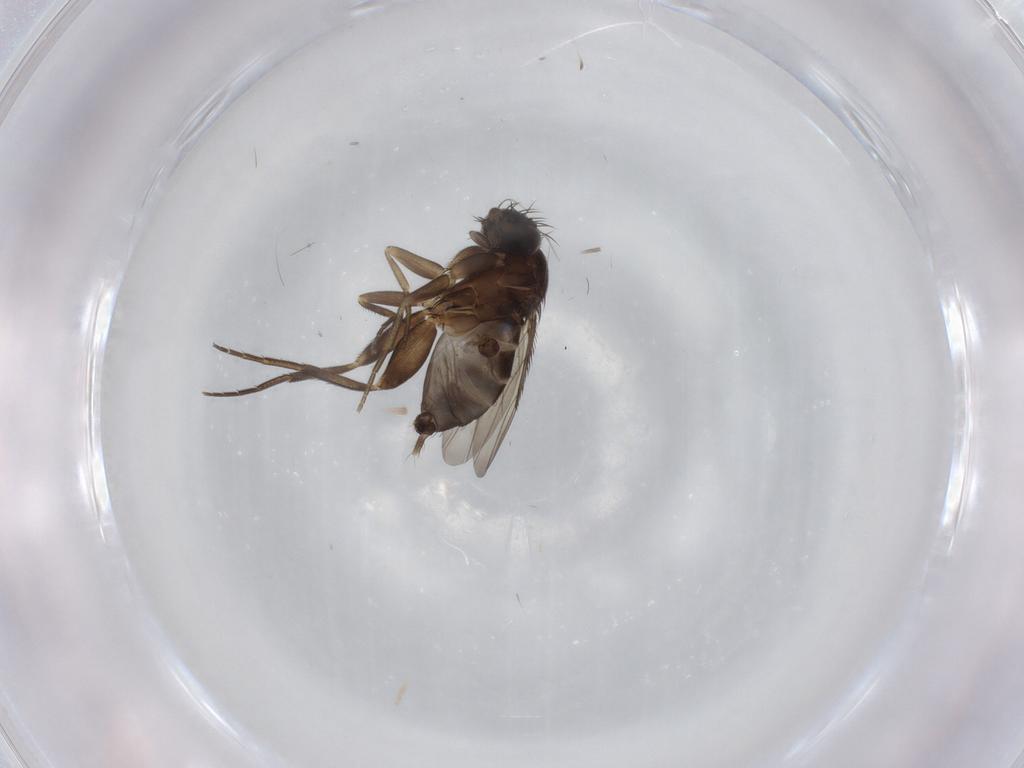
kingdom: Animalia
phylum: Arthropoda
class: Insecta
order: Diptera
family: Phoridae
